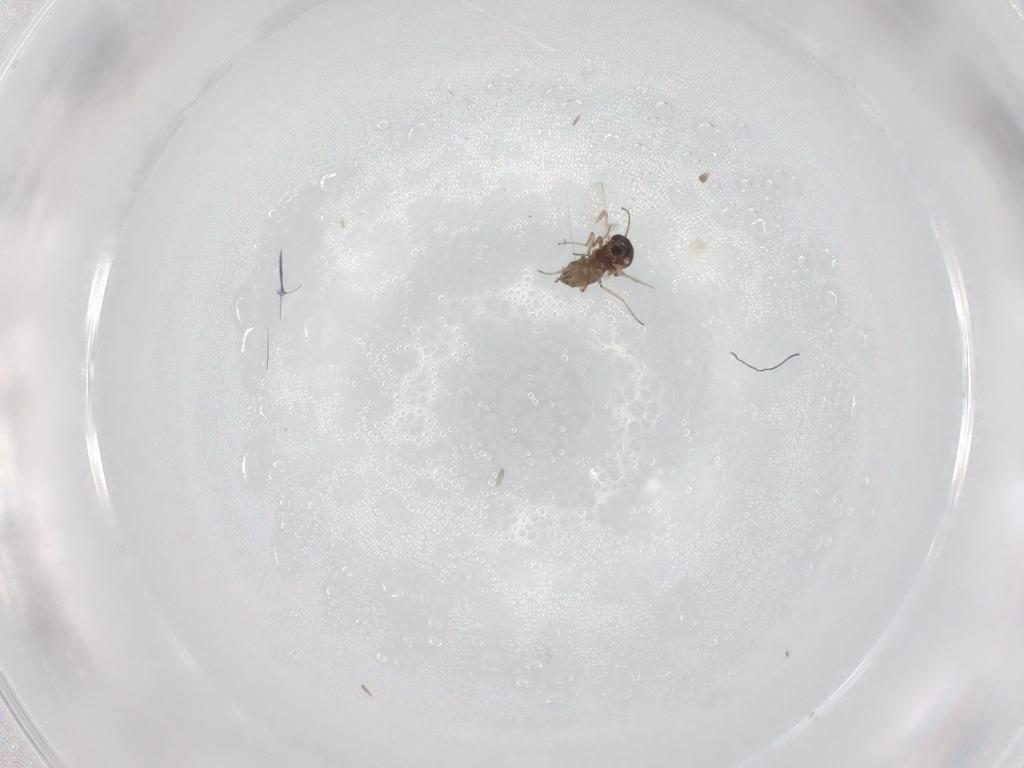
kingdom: Animalia
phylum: Arthropoda
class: Insecta
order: Diptera
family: Ceratopogonidae
